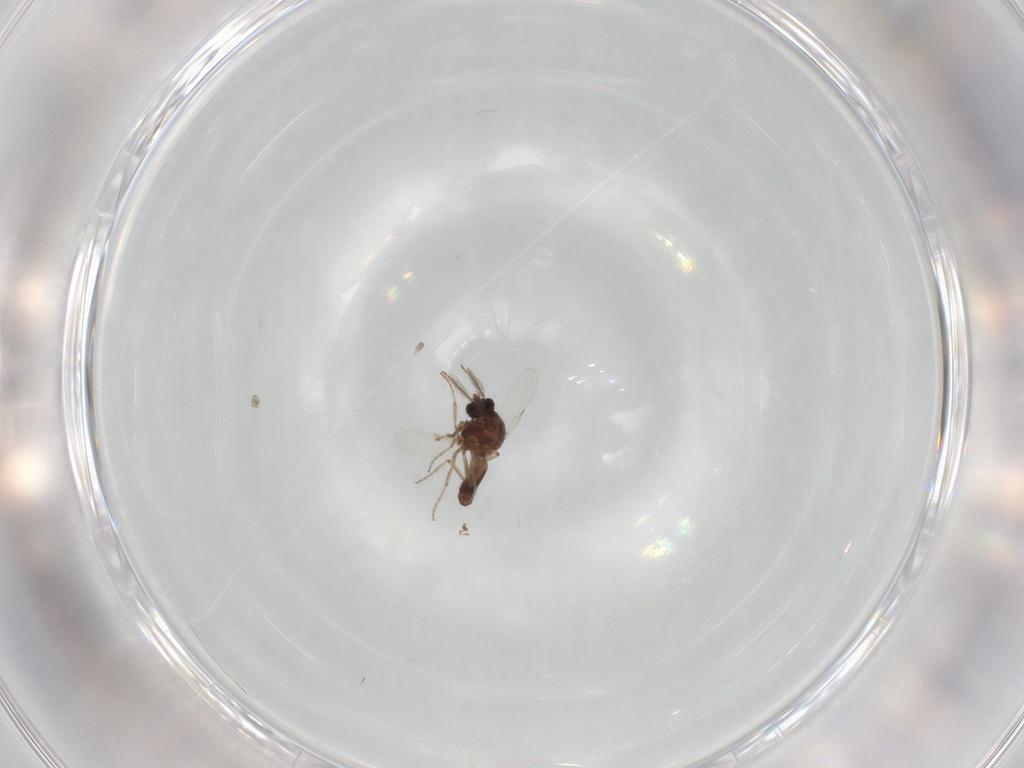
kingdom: Animalia
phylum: Arthropoda
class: Insecta
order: Diptera
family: Ceratopogonidae
